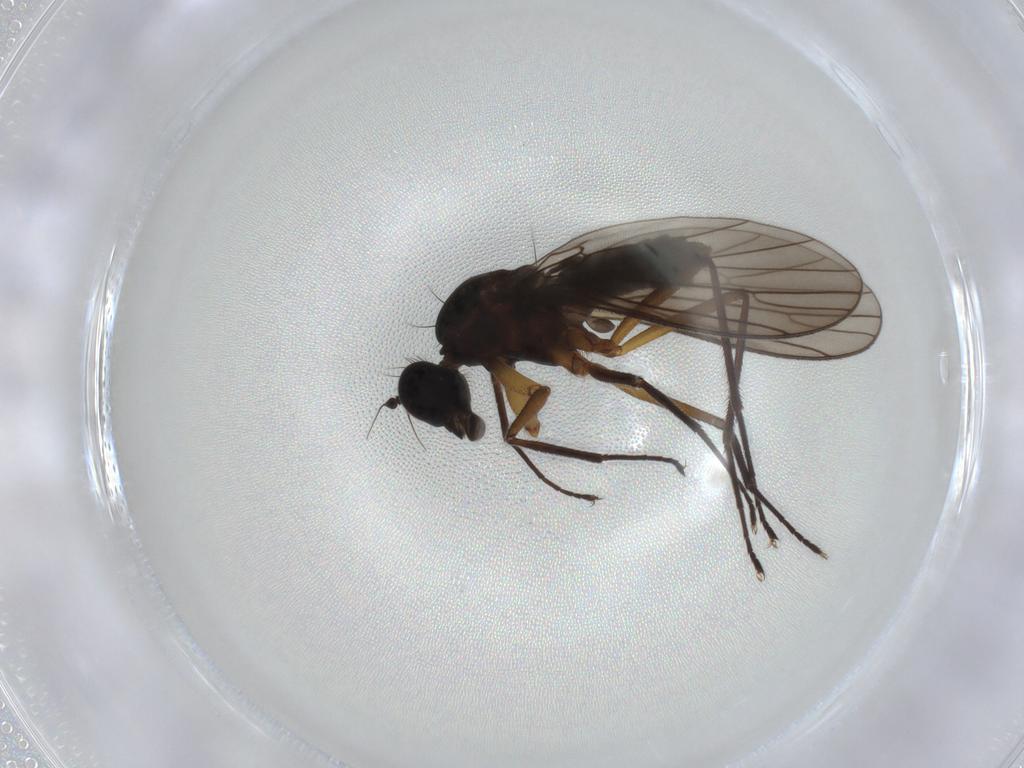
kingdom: Animalia
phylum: Arthropoda
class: Insecta
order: Diptera
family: Empididae
